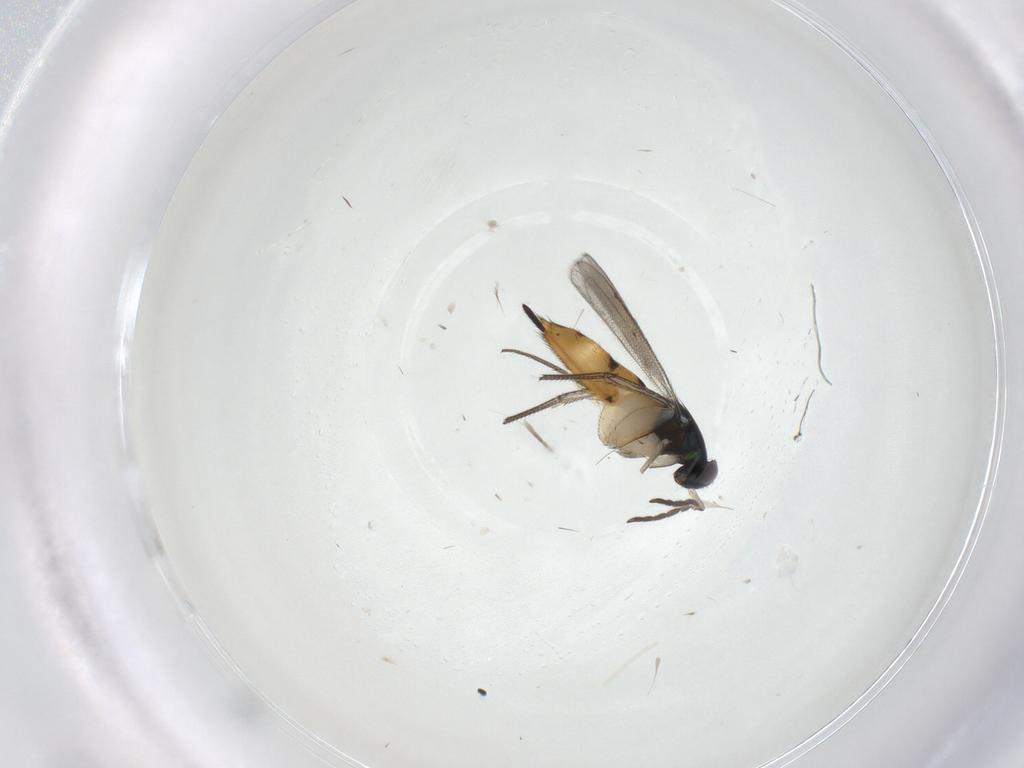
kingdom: Animalia
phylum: Arthropoda
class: Insecta
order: Hymenoptera
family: Eulophidae
